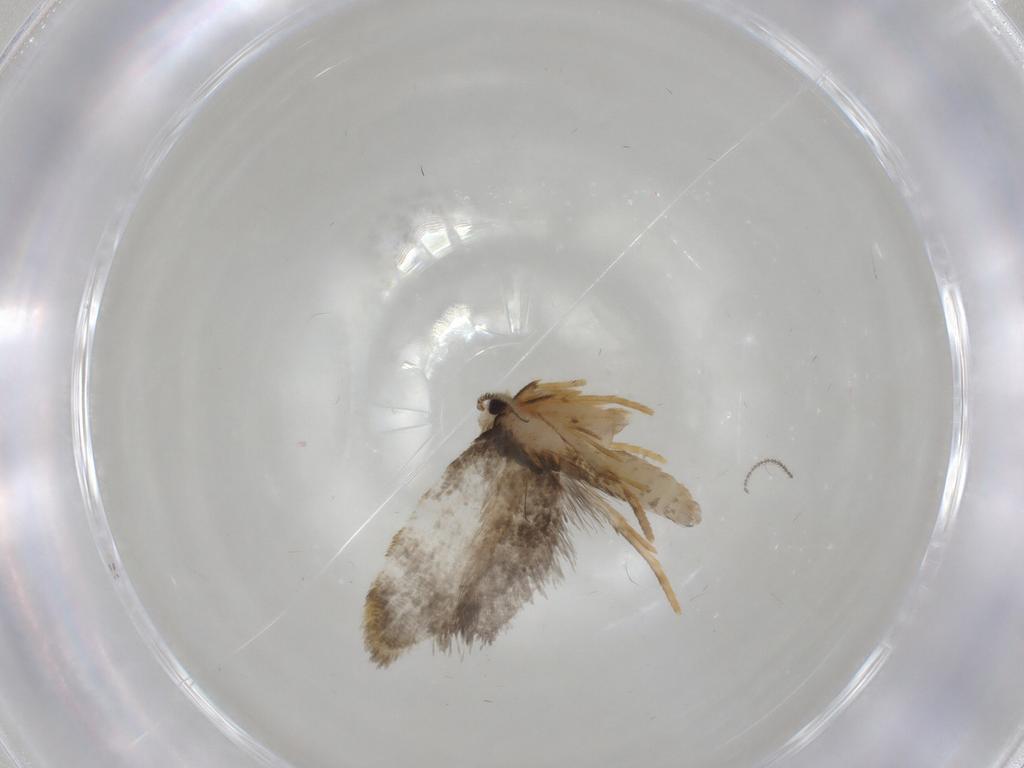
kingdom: Animalia
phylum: Arthropoda
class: Insecta
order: Lepidoptera
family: Psychidae
